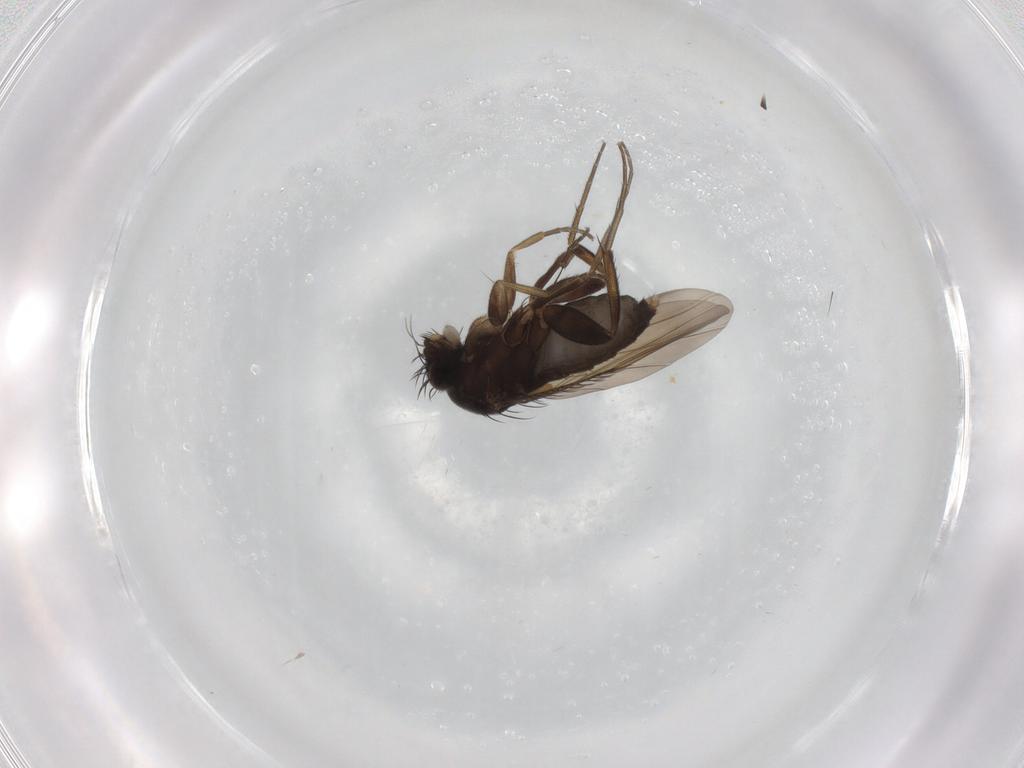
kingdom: Animalia
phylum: Arthropoda
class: Insecta
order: Diptera
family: Phoridae
